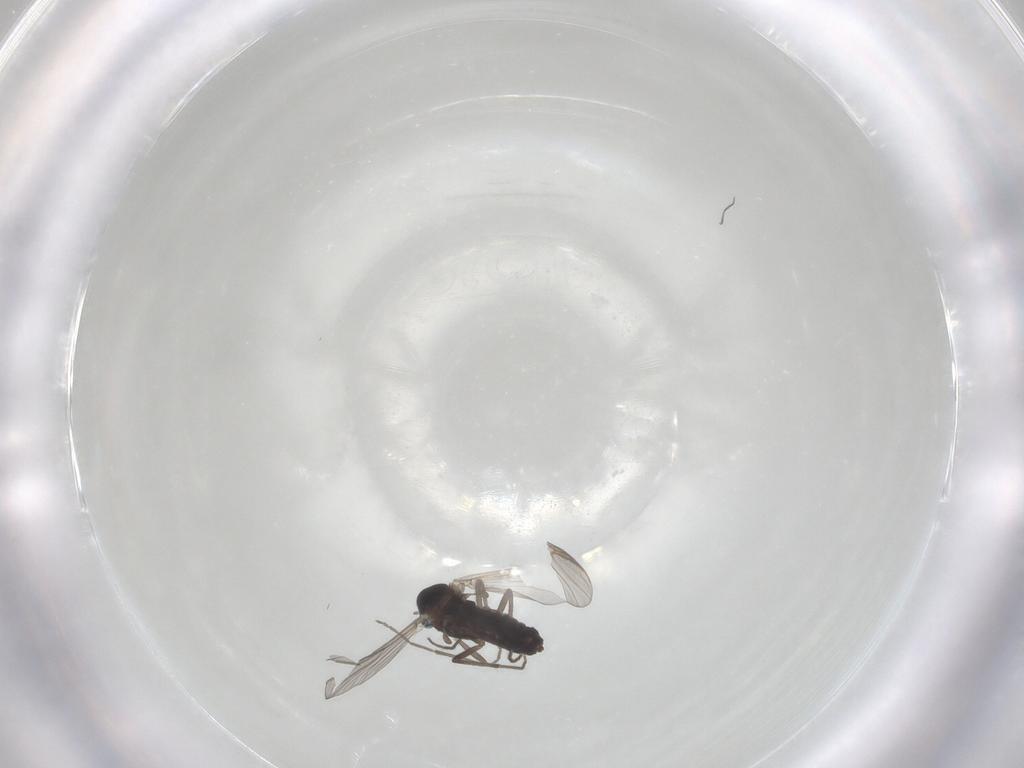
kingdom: Animalia
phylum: Arthropoda
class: Insecta
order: Diptera
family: Chironomidae
